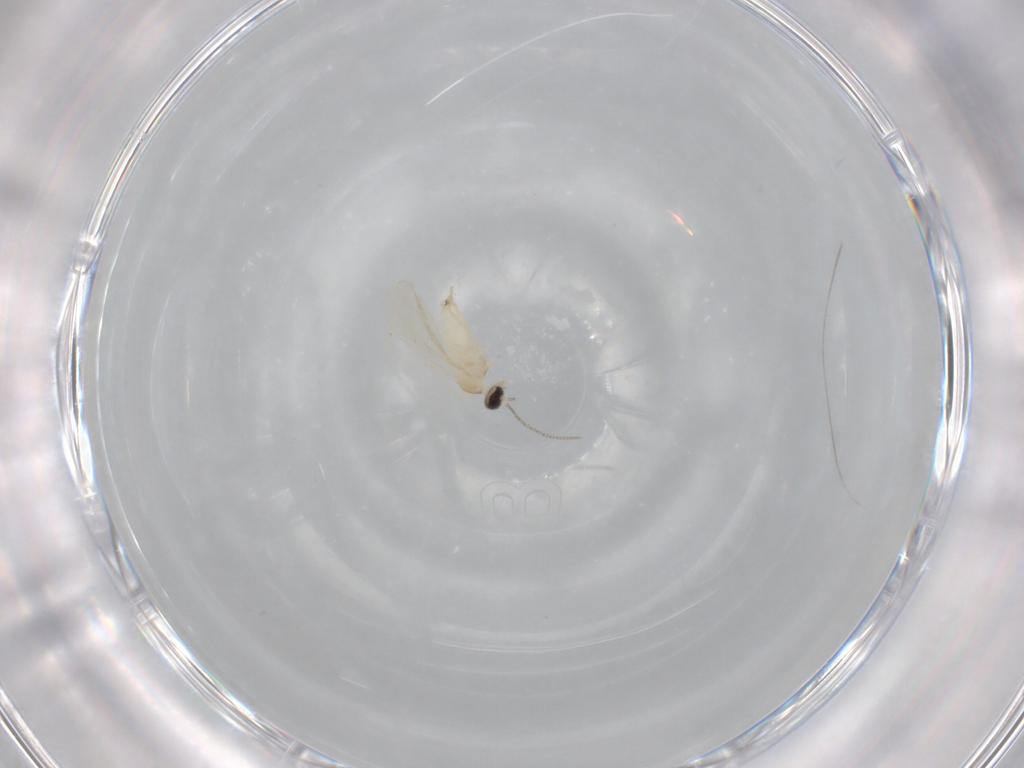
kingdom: Animalia
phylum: Arthropoda
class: Insecta
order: Diptera
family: Cecidomyiidae
